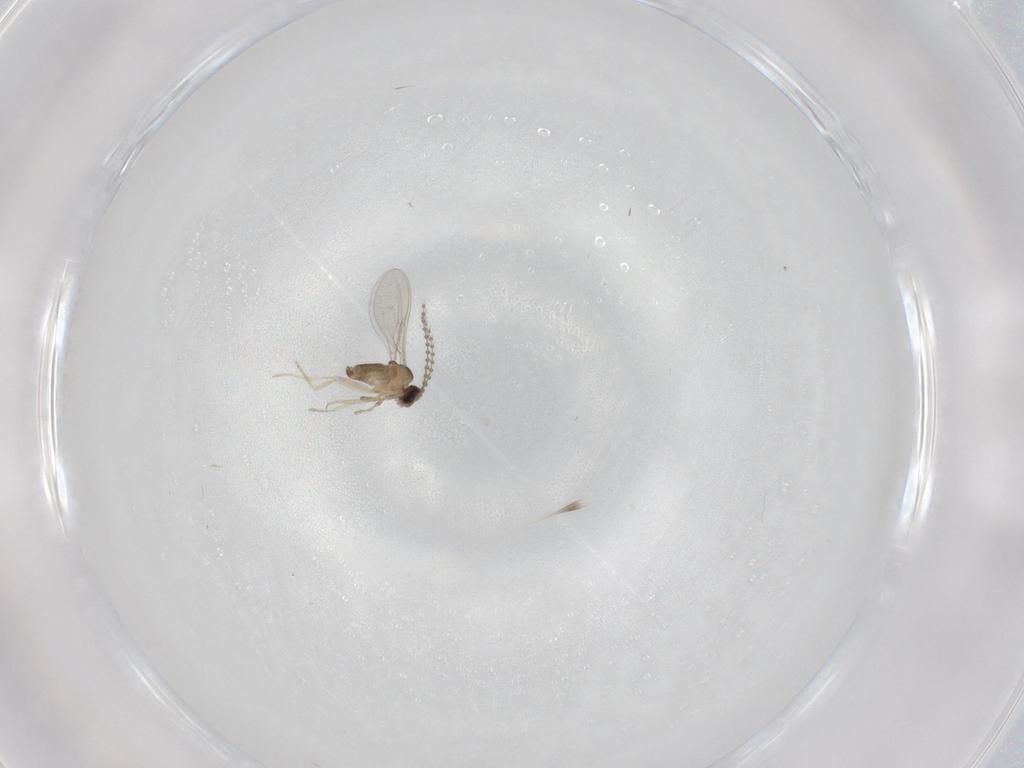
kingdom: Animalia
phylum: Arthropoda
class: Insecta
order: Diptera
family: Cecidomyiidae
